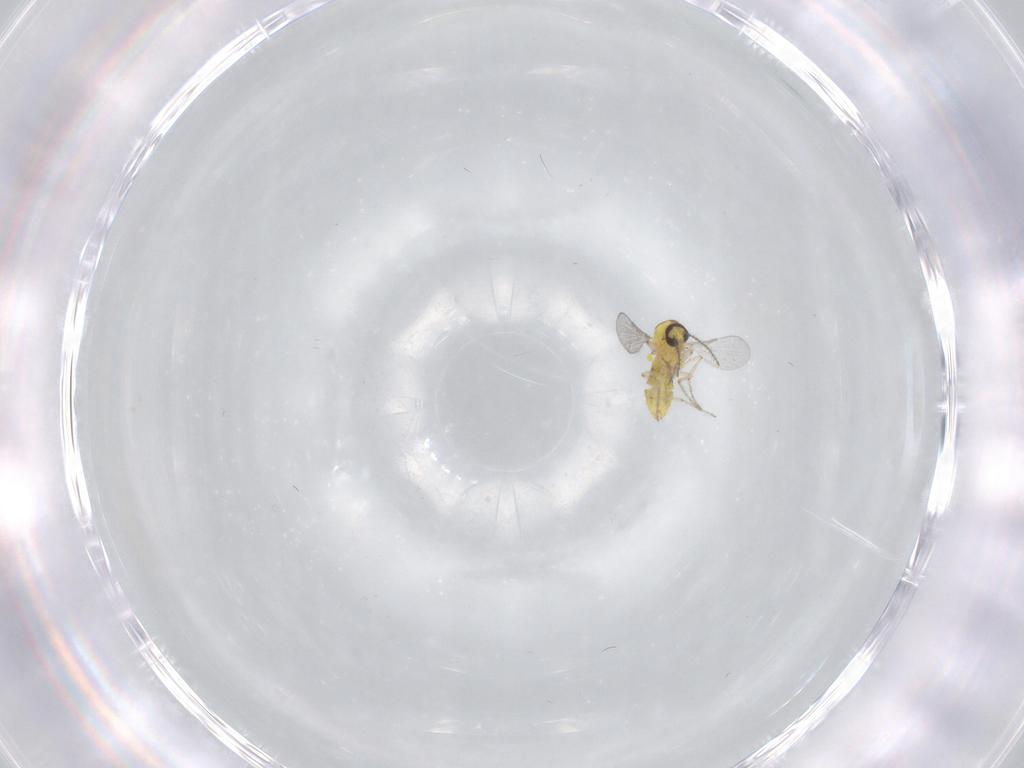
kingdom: Animalia
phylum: Arthropoda
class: Insecta
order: Diptera
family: Ceratopogonidae
